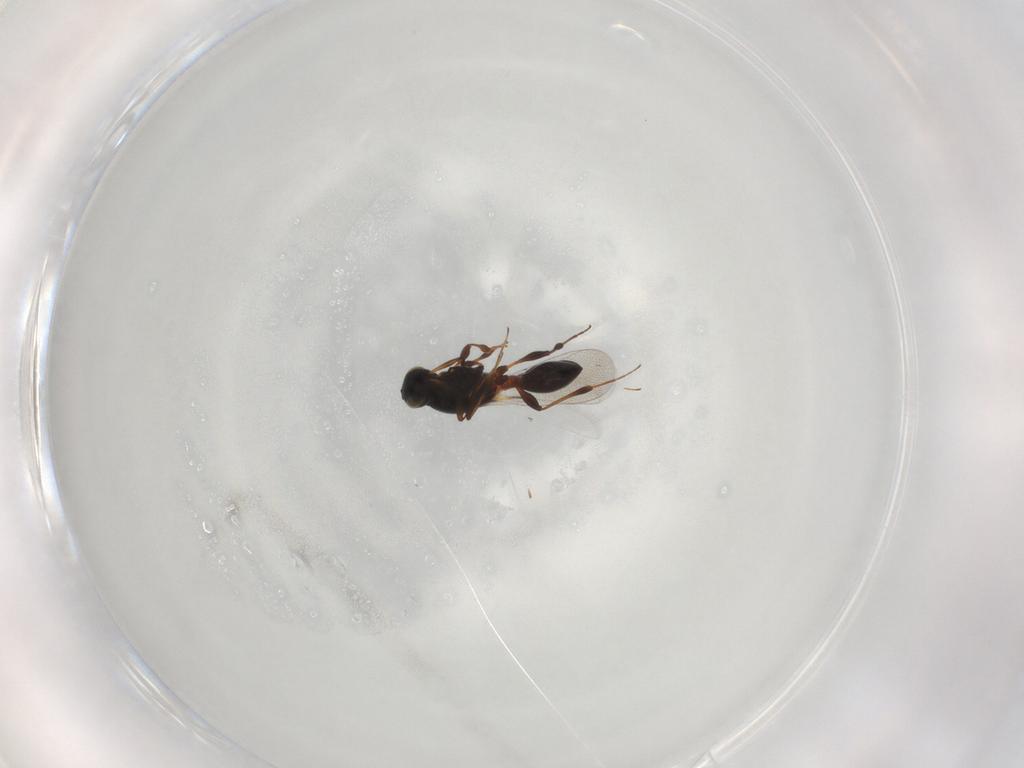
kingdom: Animalia
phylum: Arthropoda
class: Insecta
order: Hymenoptera
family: Platygastridae
